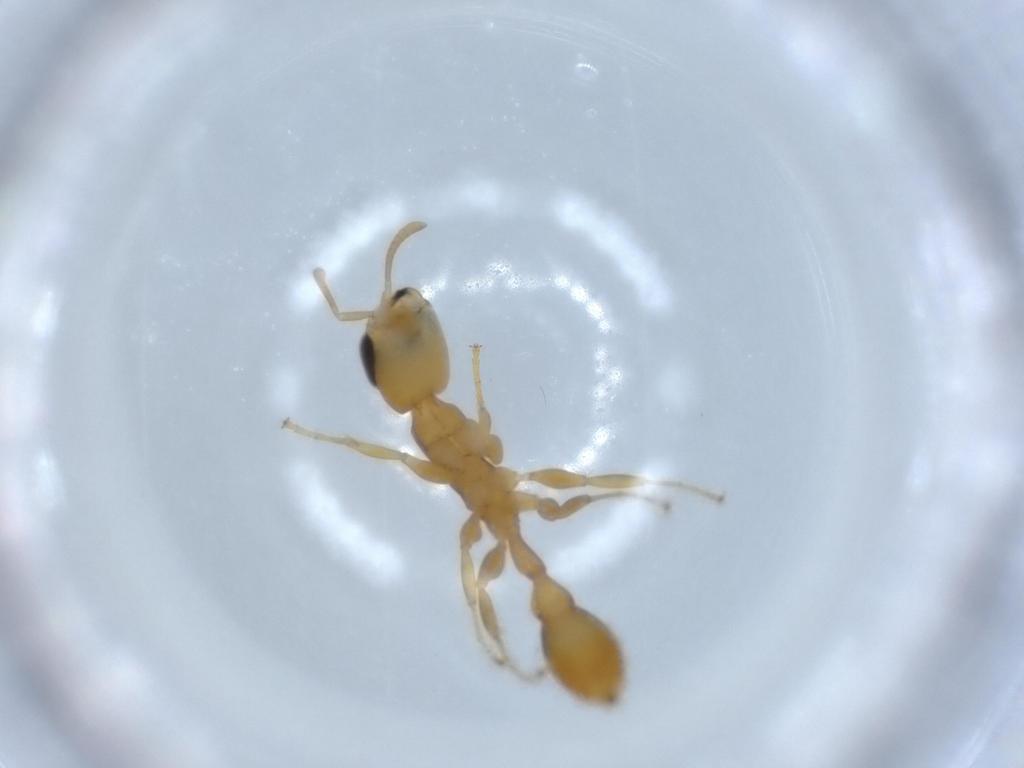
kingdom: Animalia
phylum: Arthropoda
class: Insecta
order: Hymenoptera
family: Formicidae
